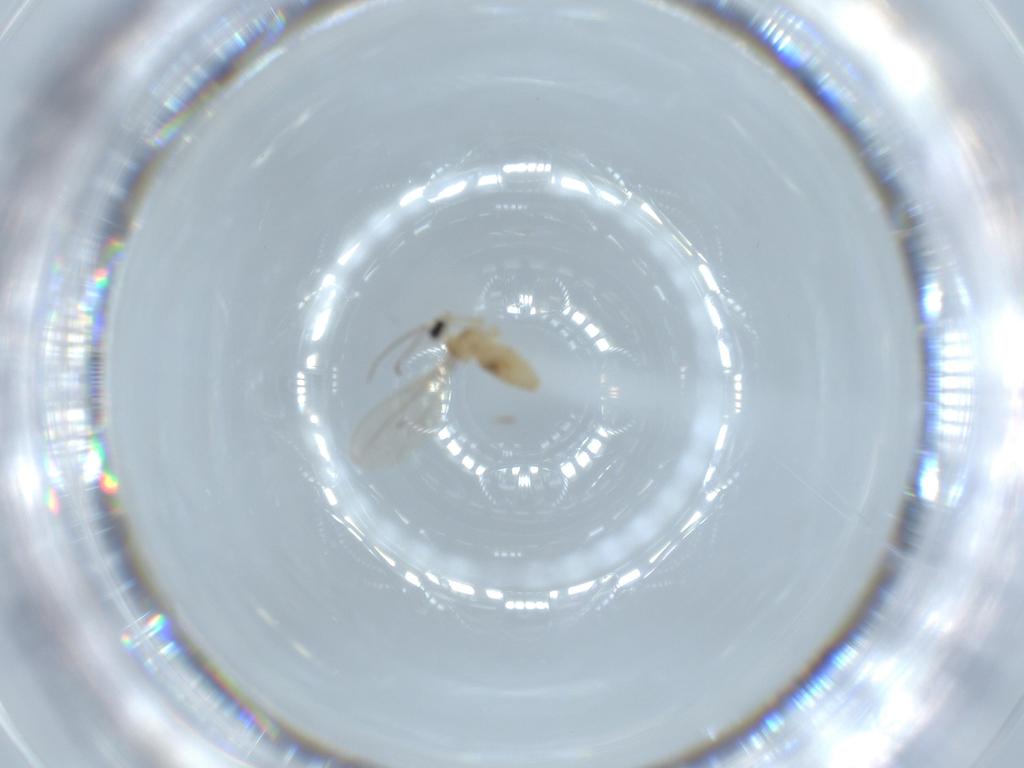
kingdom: Animalia
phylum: Arthropoda
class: Insecta
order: Diptera
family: Cecidomyiidae
